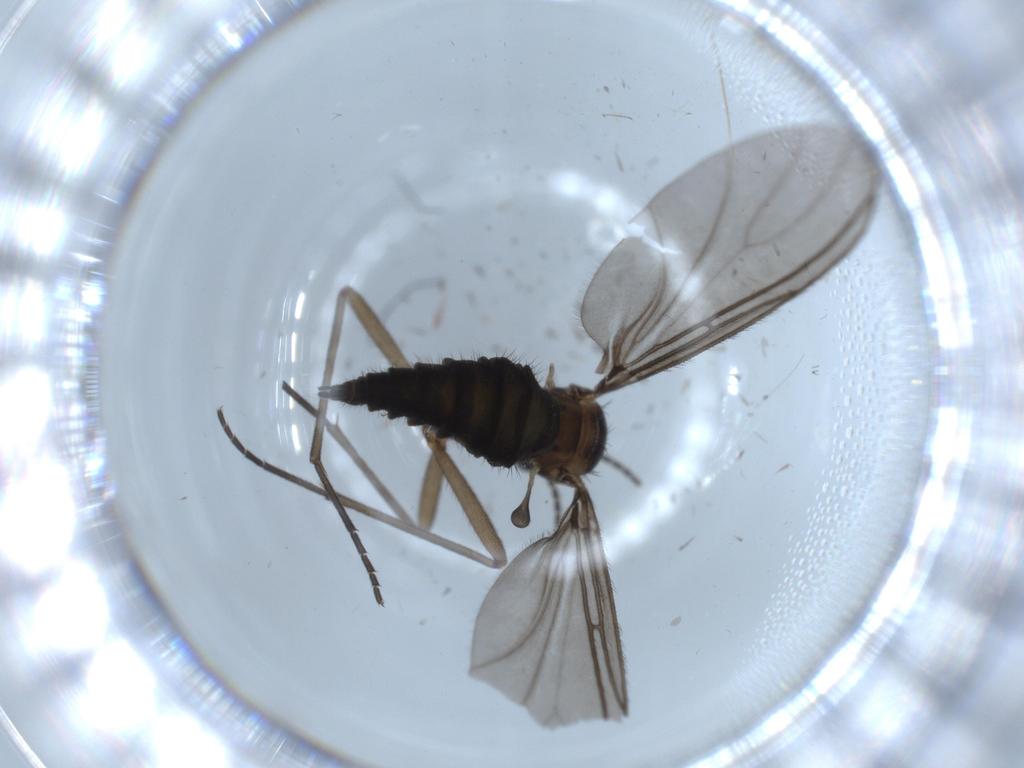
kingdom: Animalia
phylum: Arthropoda
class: Insecta
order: Diptera
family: Sciaridae
